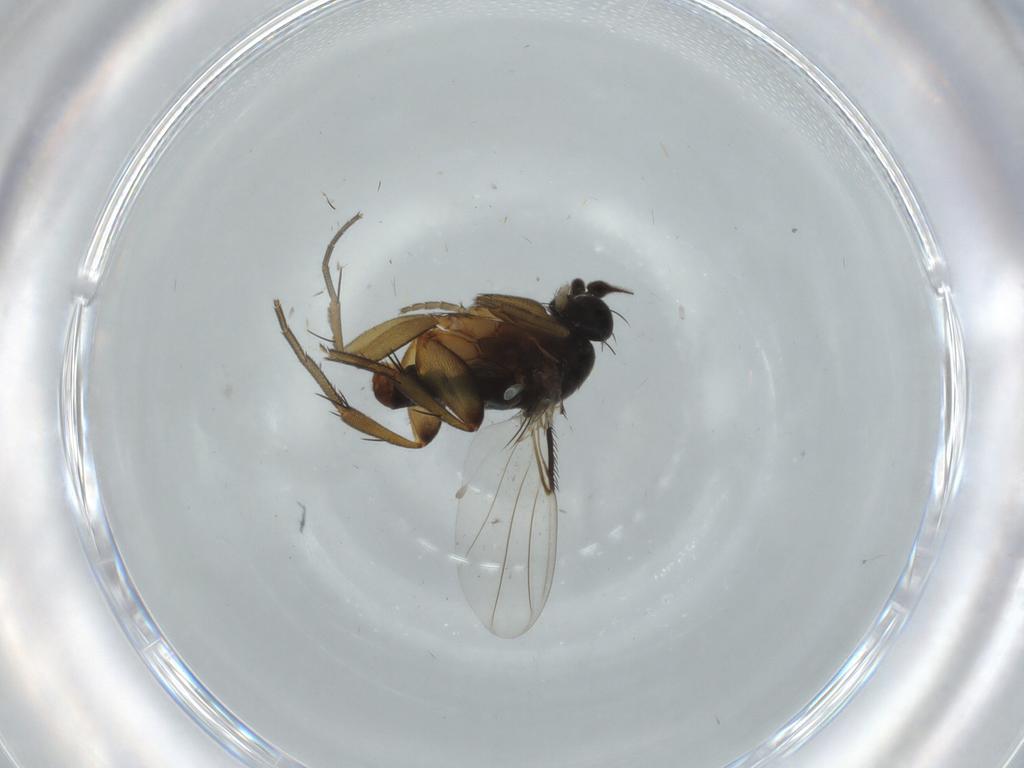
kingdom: Animalia
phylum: Arthropoda
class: Insecta
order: Diptera
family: Phoridae
